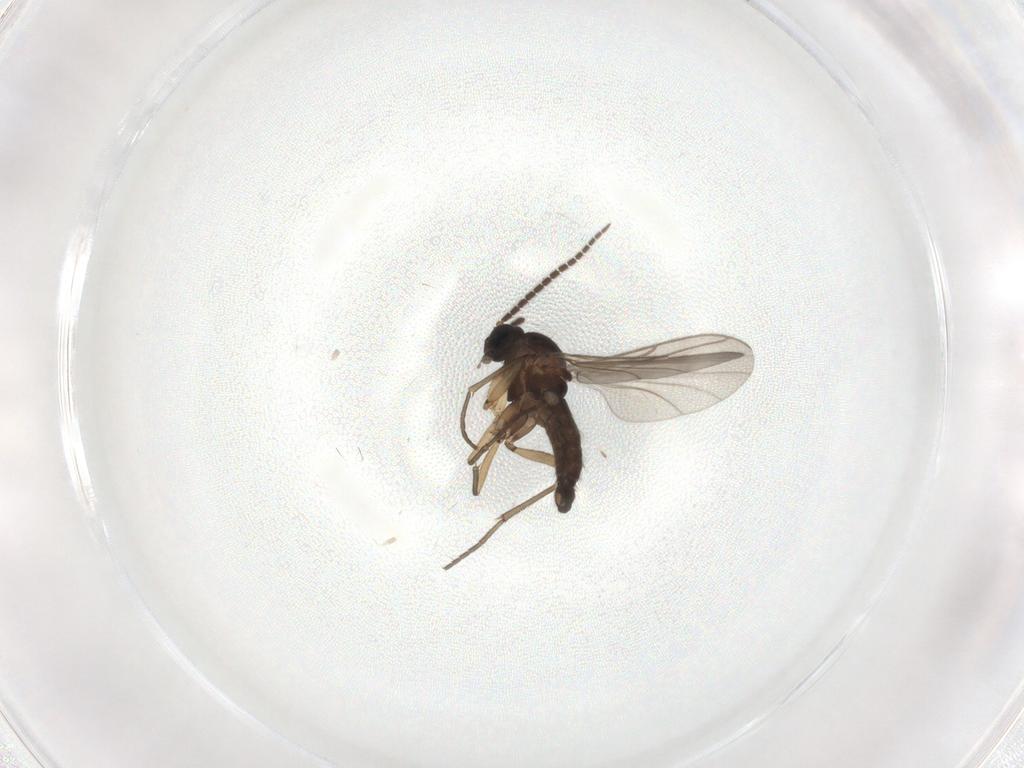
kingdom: Animalia
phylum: Arthropoda
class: Insecta
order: Diptera
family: Sciaridae
